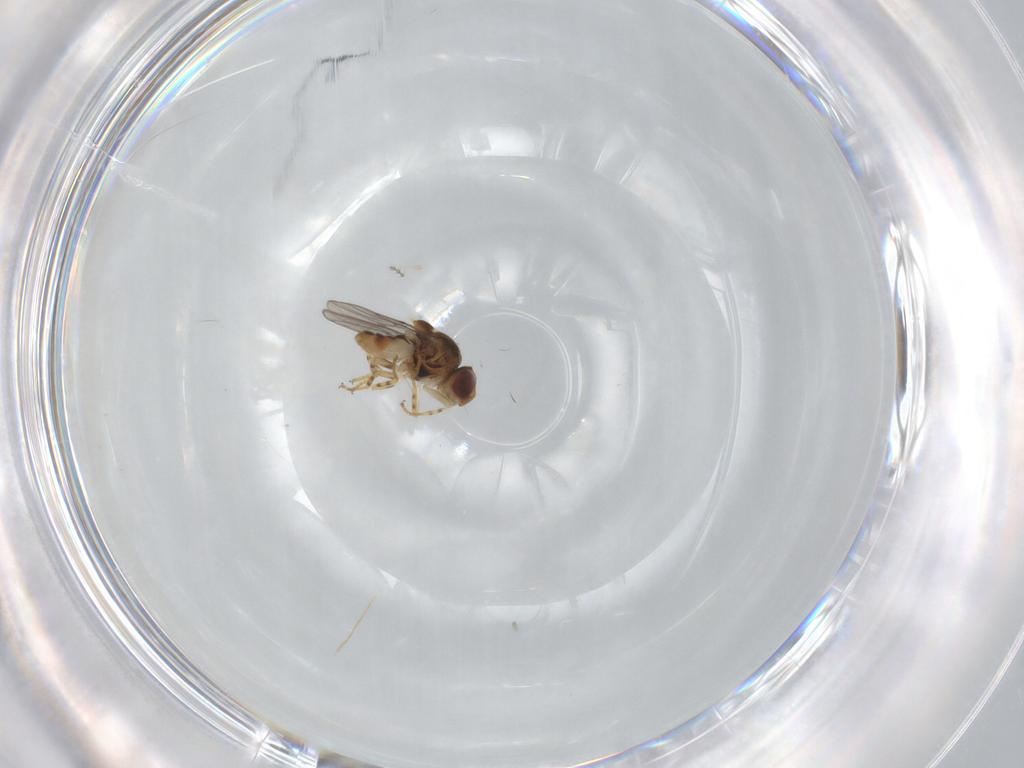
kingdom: Animalia
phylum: Arthropoda
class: Insecta
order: Diptera
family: Chloropidae
